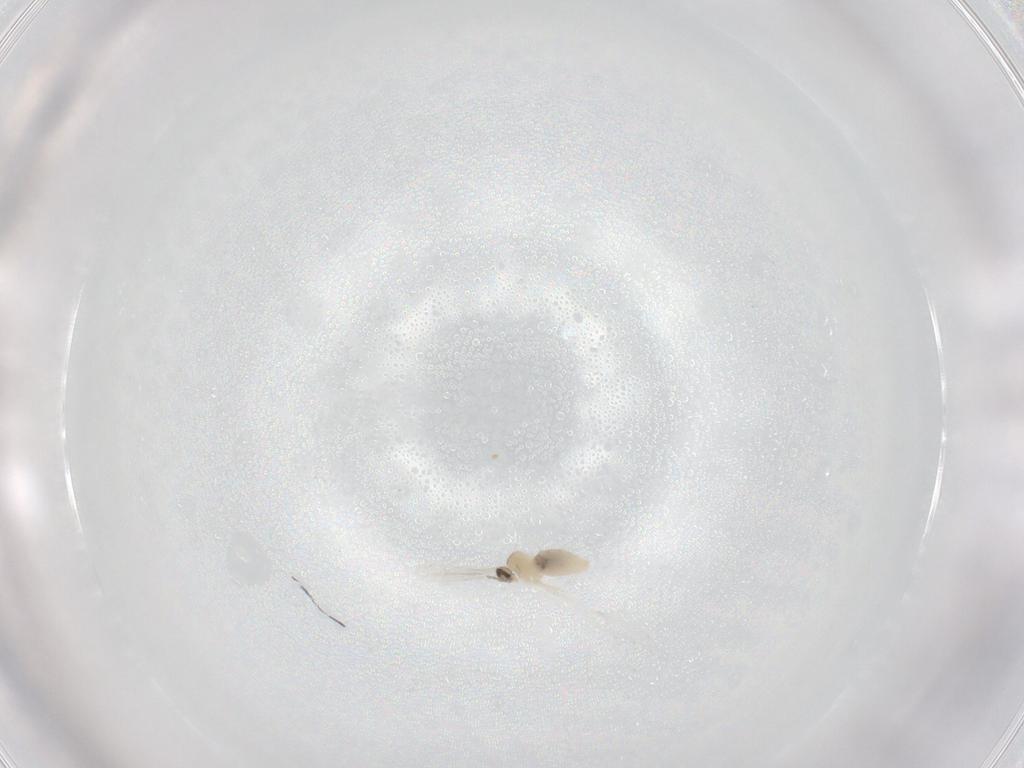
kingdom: Animalia
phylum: Arthropoda
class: Insecta
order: Diptera
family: Cecidomyiidae
